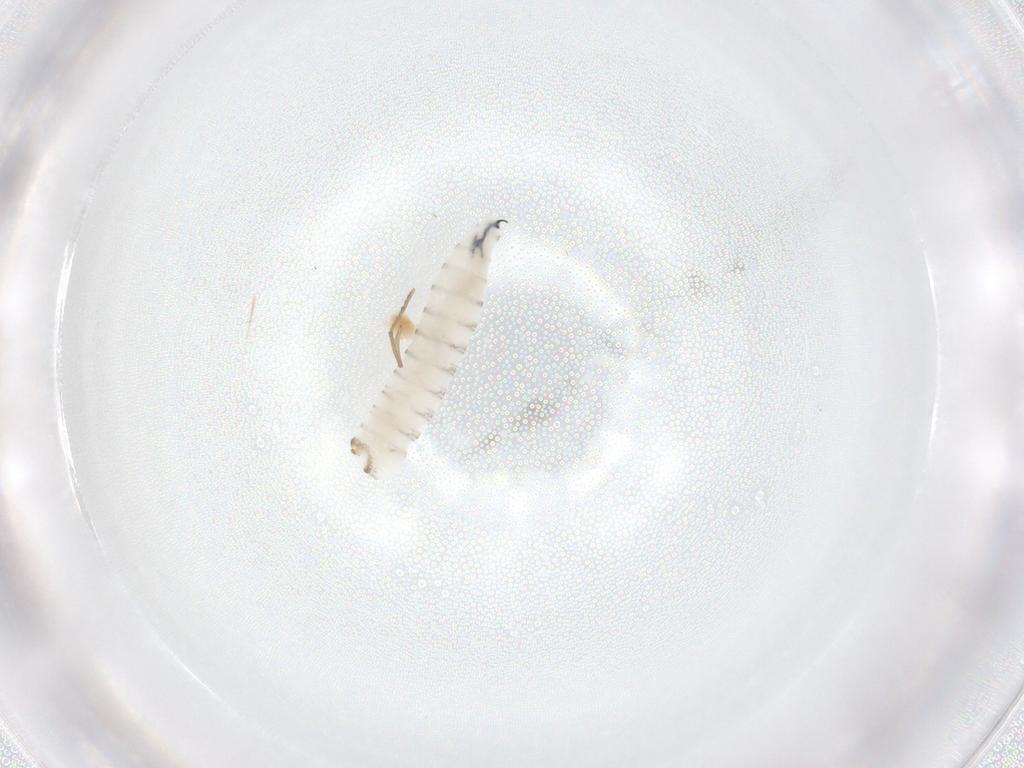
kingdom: Animalia
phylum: Arthropoda
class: Insecta
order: Diptera
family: Sarcophagidae
